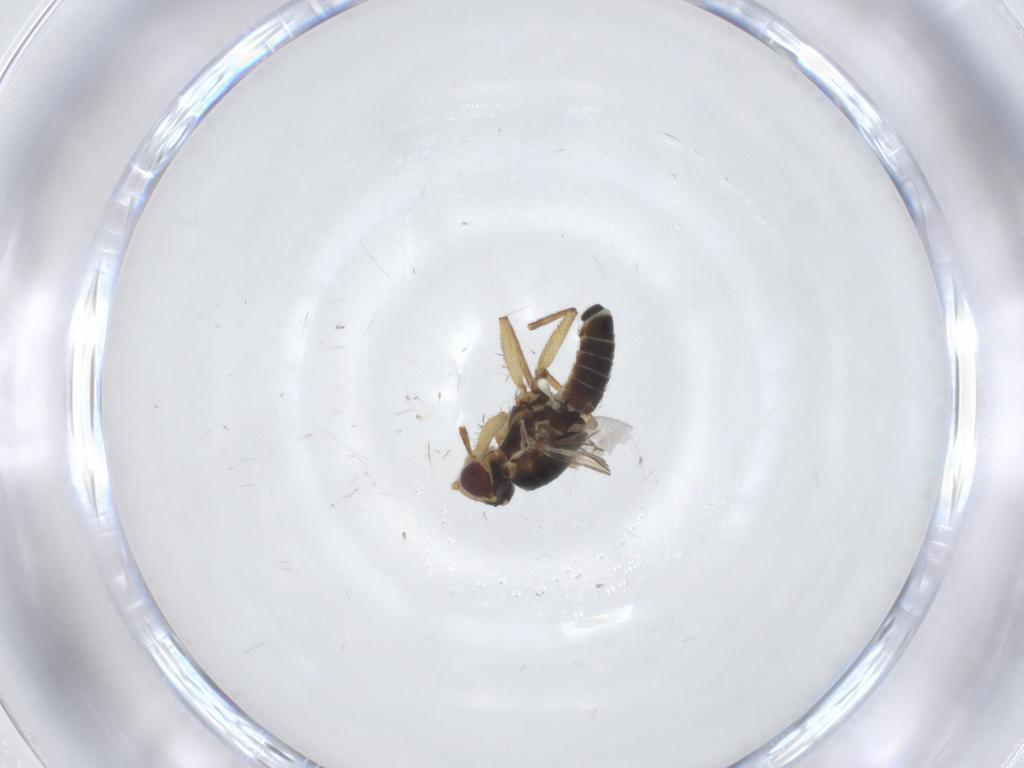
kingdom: Animalia
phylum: Arthropoda
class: Insecta
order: Diptera
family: Agromyzidae
